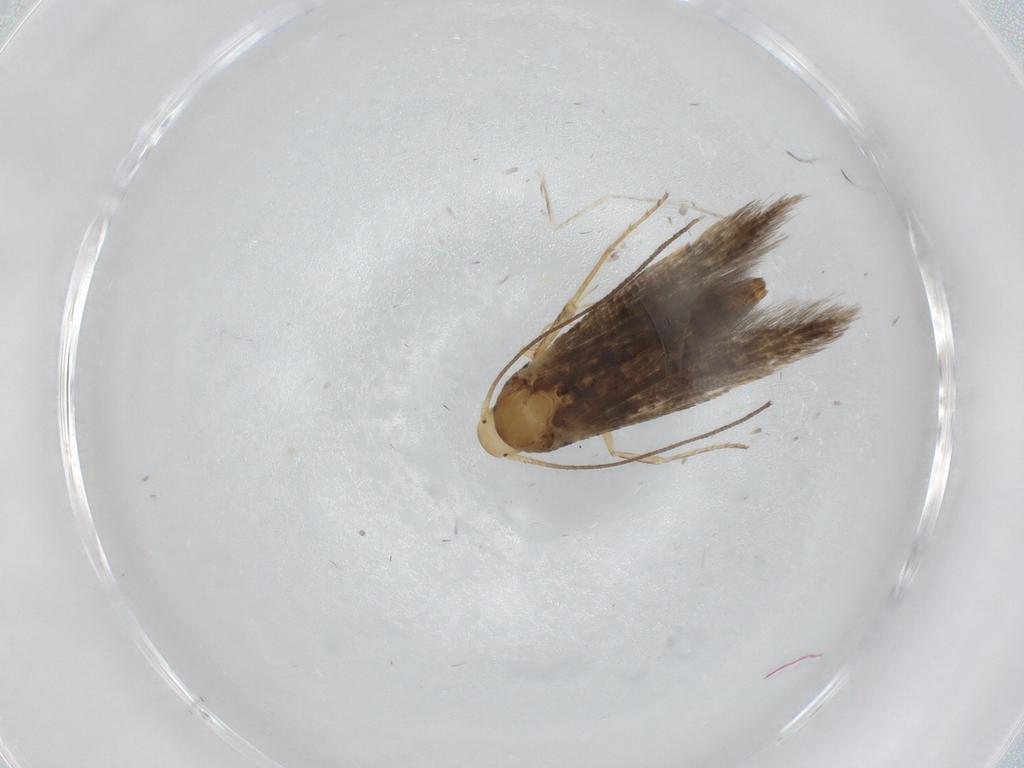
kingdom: Animalia
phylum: Arthropoda
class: Insecta
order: Lepidoptera
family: Heliodinidae
